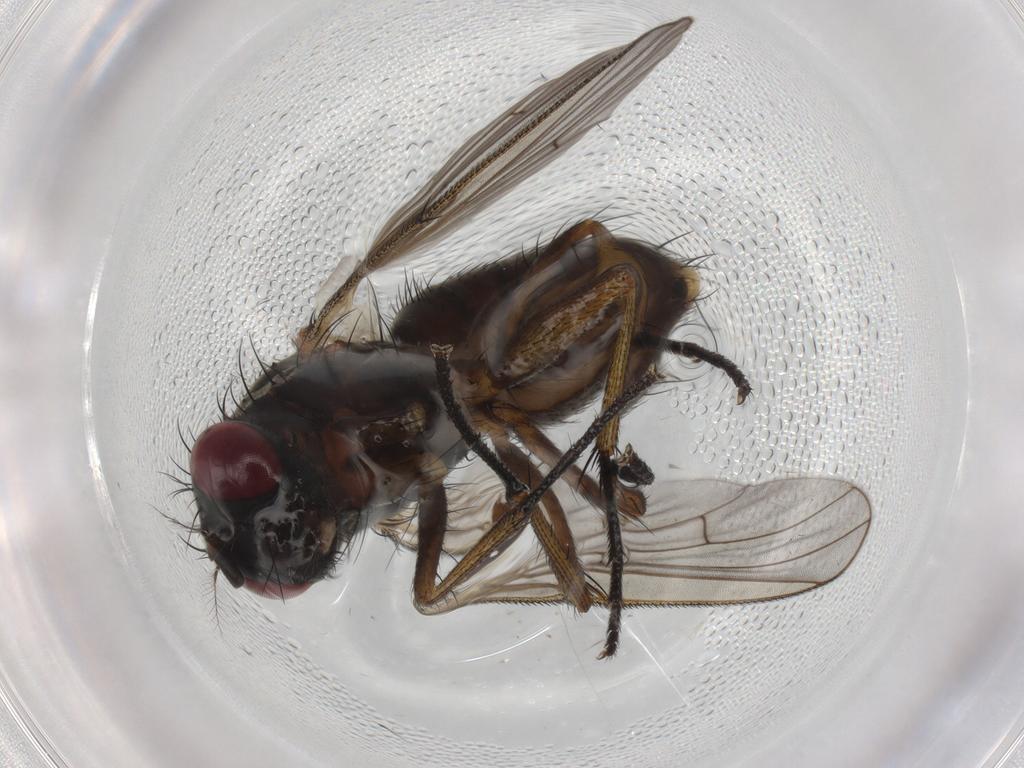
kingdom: Animalia
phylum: Arthropoda
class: Insecta
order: Diptera
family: Muscidae
